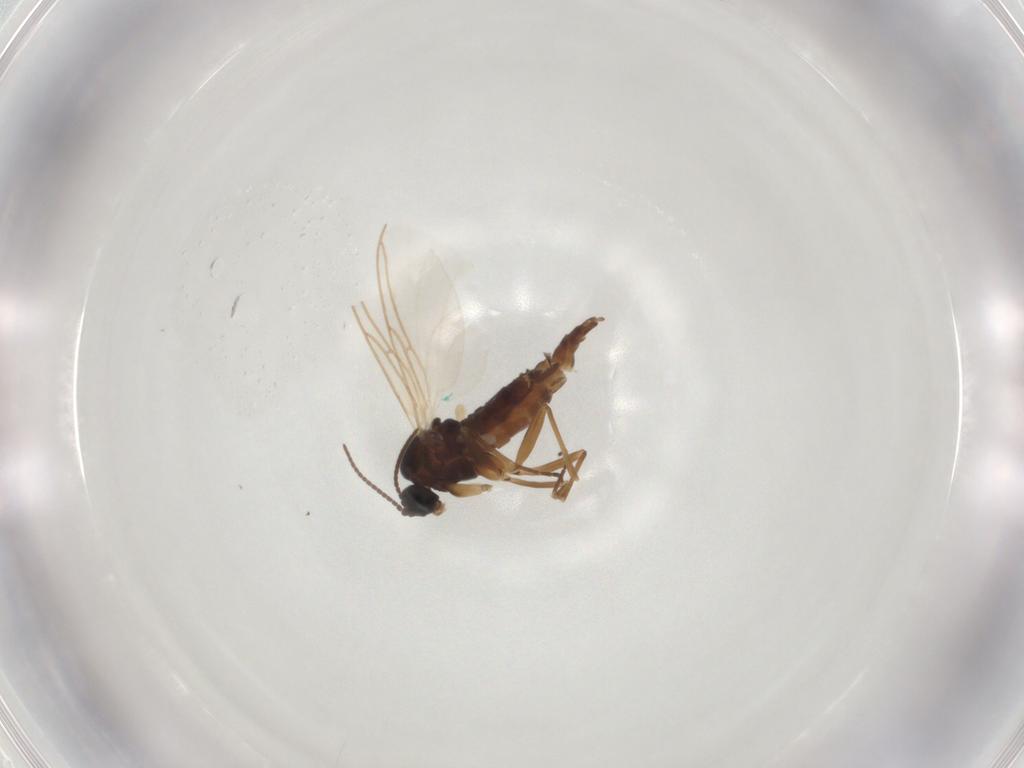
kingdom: Animalia
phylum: Arthropoda
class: Insecta
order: Diptera
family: Sciaridae
